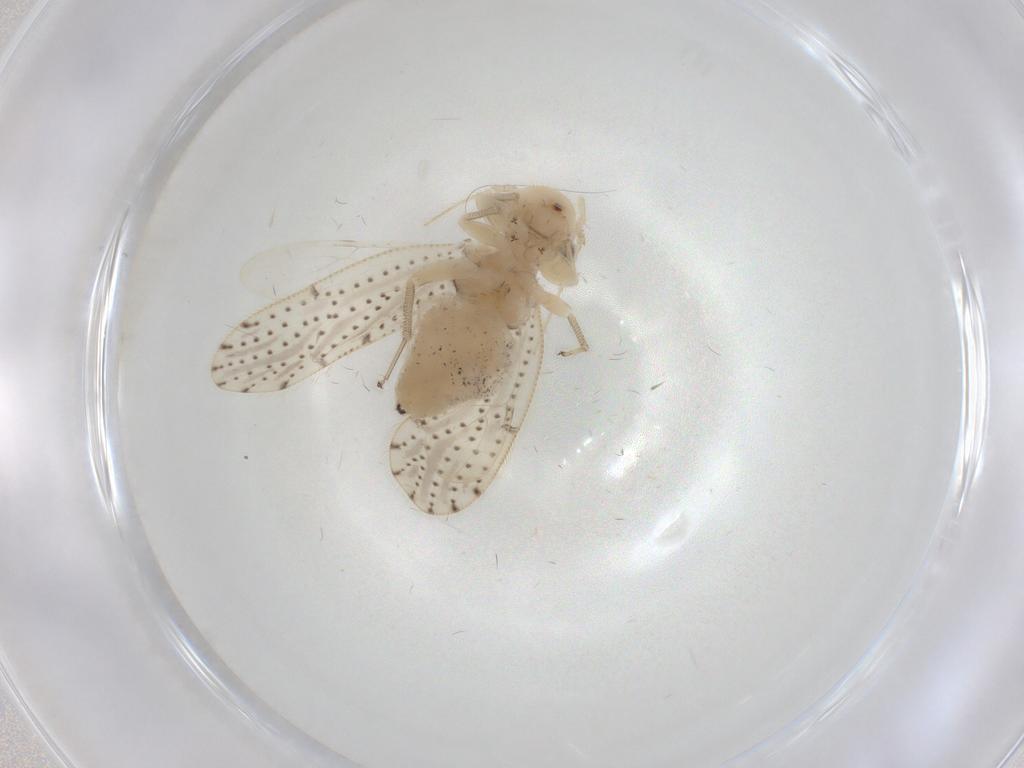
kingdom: Animalia
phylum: Arthropoda
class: Insecta
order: Psocodea
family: Myopsocidae
